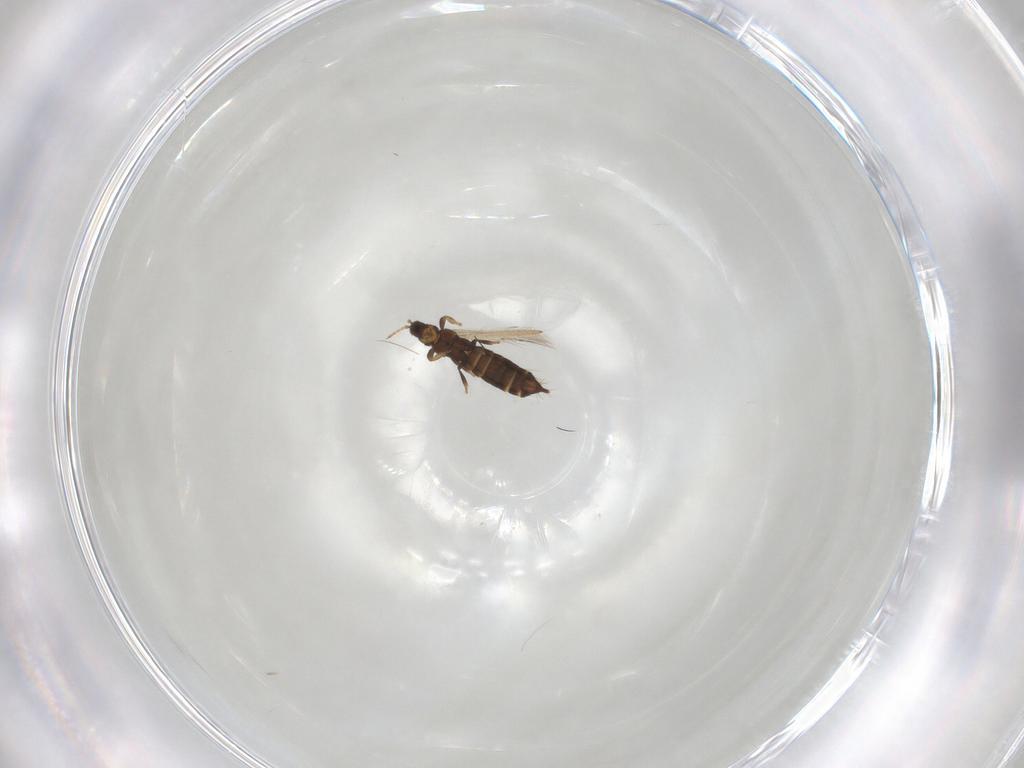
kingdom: Animalia
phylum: Arthropoda
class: Insecta
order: Thysanoptera
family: Thripidae
